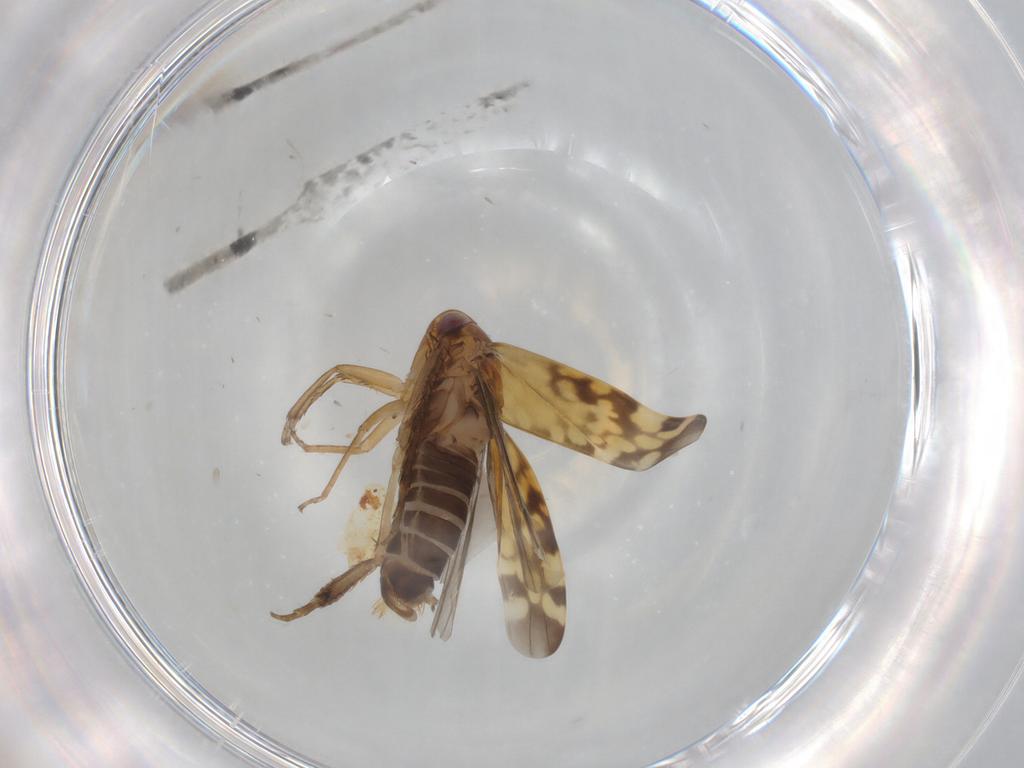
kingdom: Animalia
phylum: Arthropoda
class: Insecta
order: Hemiptera
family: Cicadellidae
